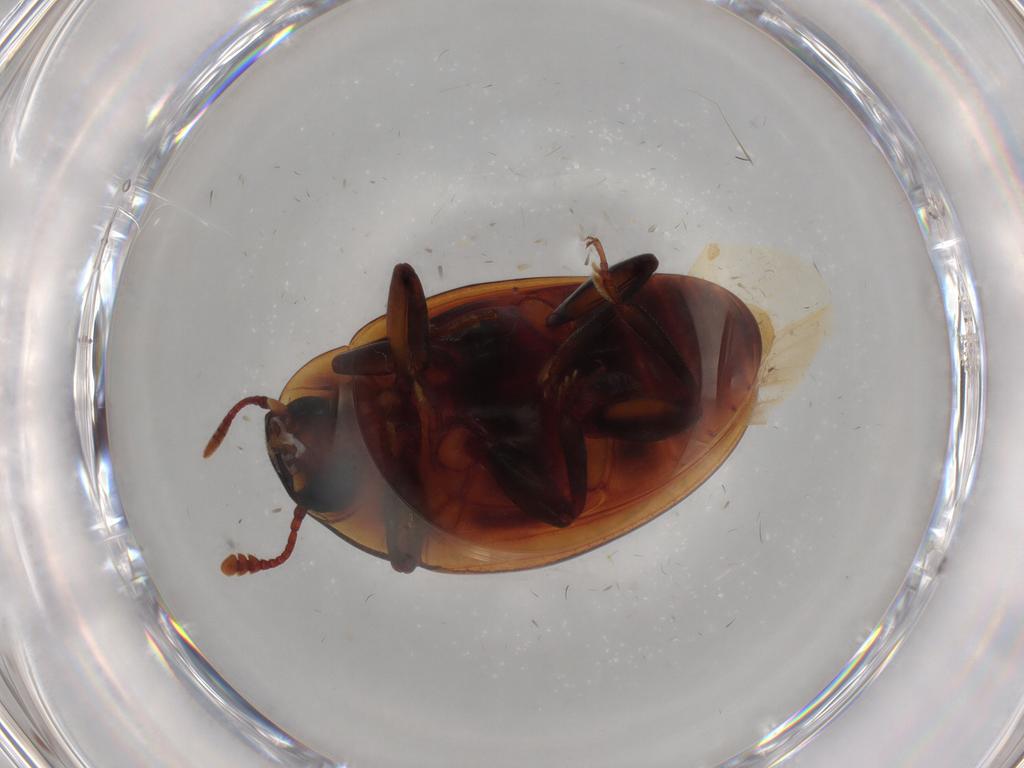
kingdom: Animalia
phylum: Arthropoda
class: Insecta
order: Coleoptera
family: Zopheridae
